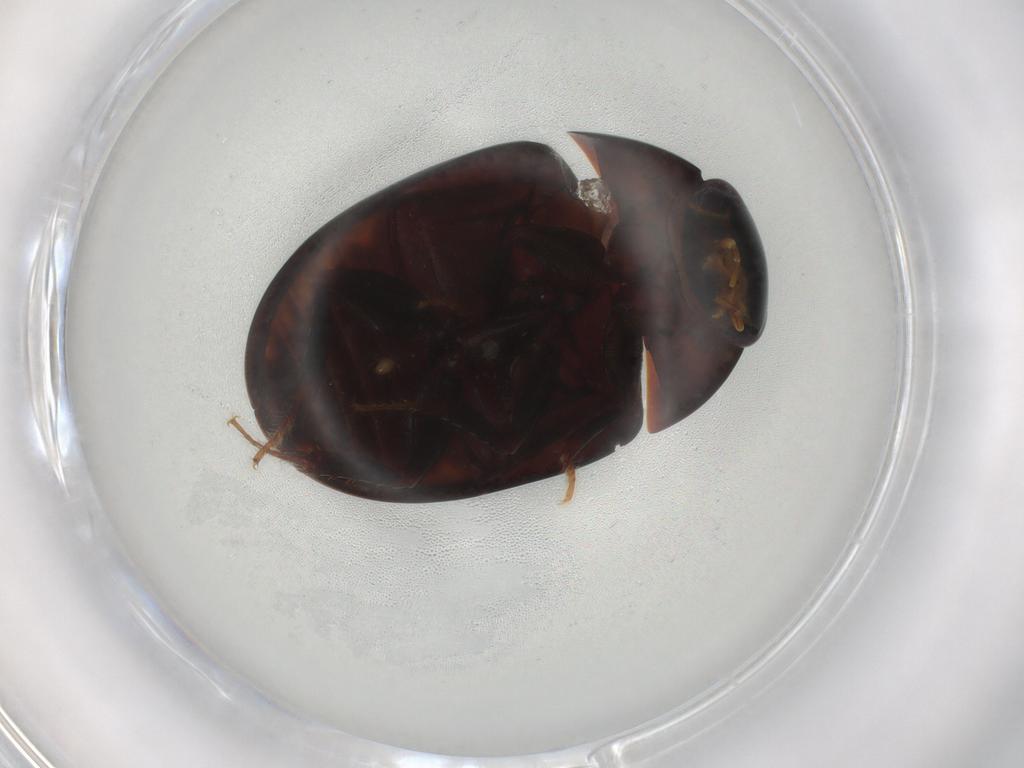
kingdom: Animalia
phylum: Arthropoda
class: Insecta
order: Coleoptera
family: Hydrophilidae
